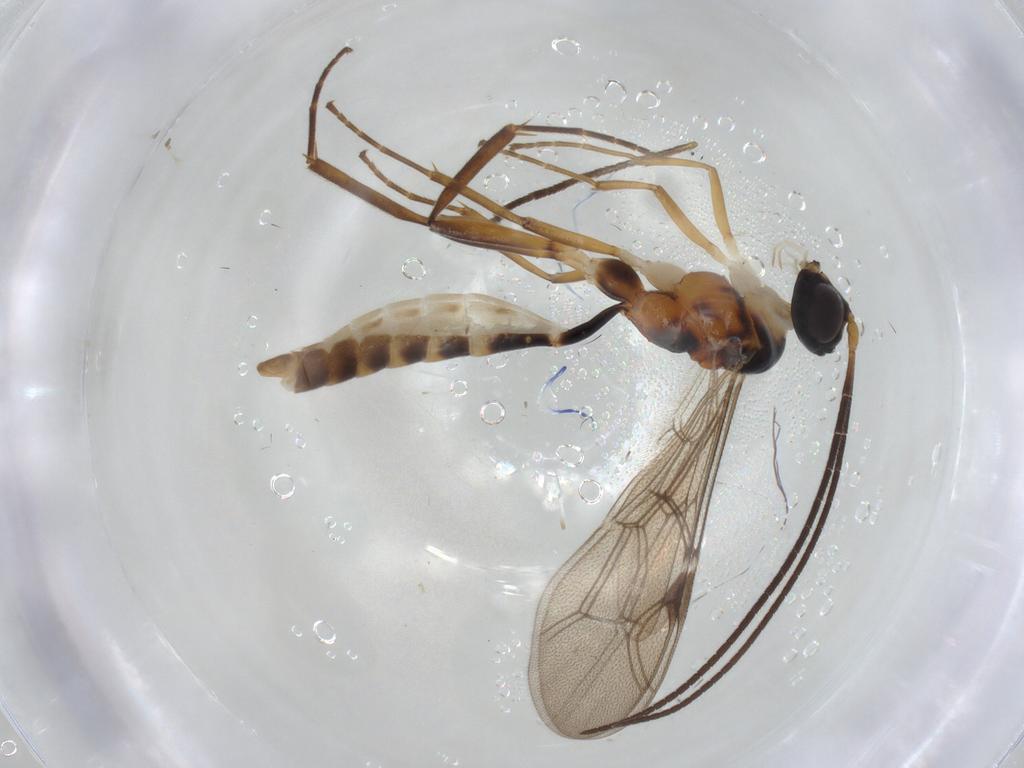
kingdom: Animalia
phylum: Arthropoda
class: Insecta
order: Hymenoptera
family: Ichneumonidae
